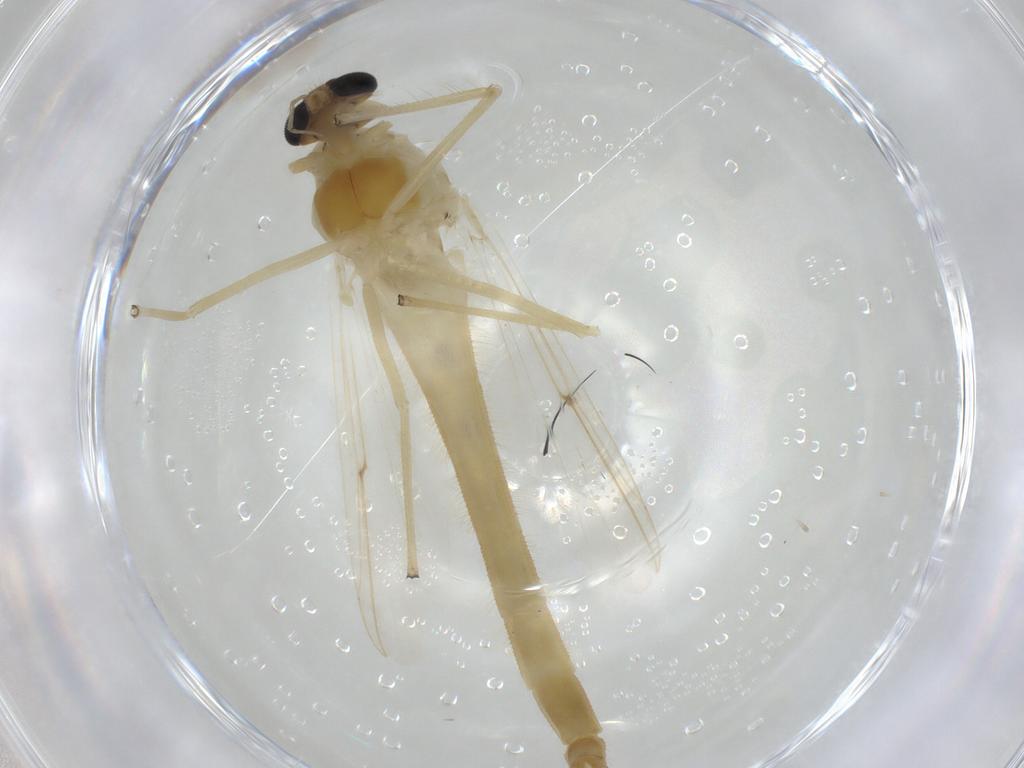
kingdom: Animalia
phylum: Arthropoda
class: Insecta
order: Diptera
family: Sciaridae
